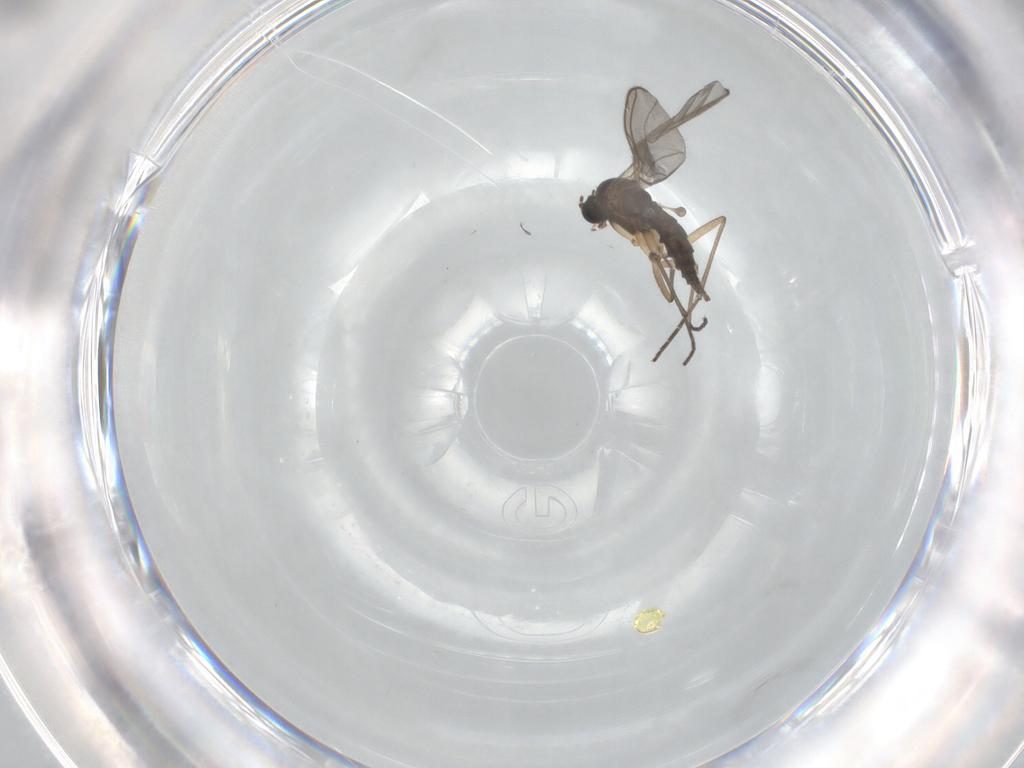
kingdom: Animalia
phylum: Arthropoda
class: Insecta
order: Diptera
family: Sciaridae
